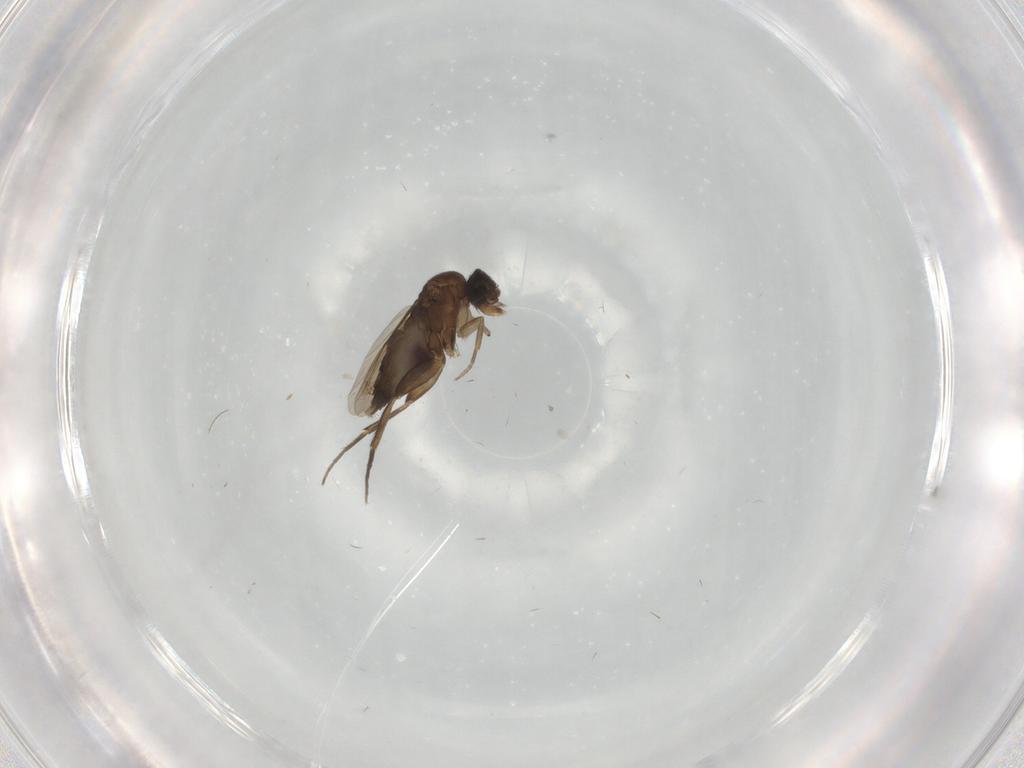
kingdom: Animalia
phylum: Arthropoda
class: Insecta
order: Diptera
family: Phoridae
